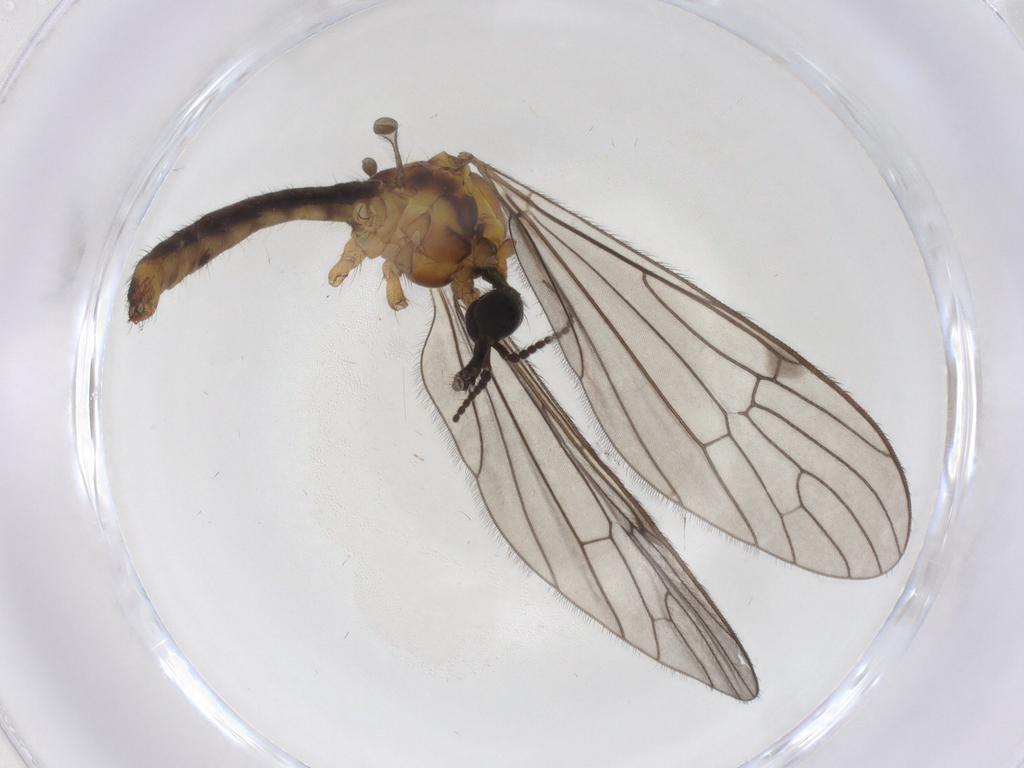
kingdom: Animalia
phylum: Arthropoda
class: Insecta
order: Diptera
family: Limoniidae
